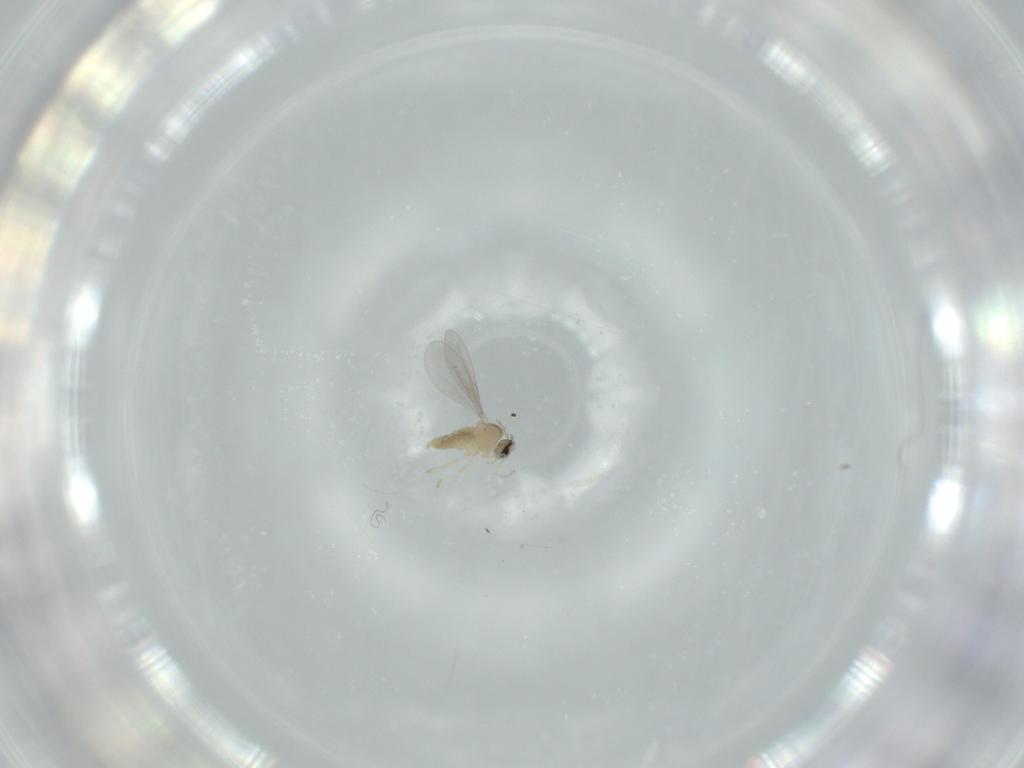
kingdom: Animalia
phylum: Arthropoda
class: Insecta
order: Diptera
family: Cecidomyiidae
